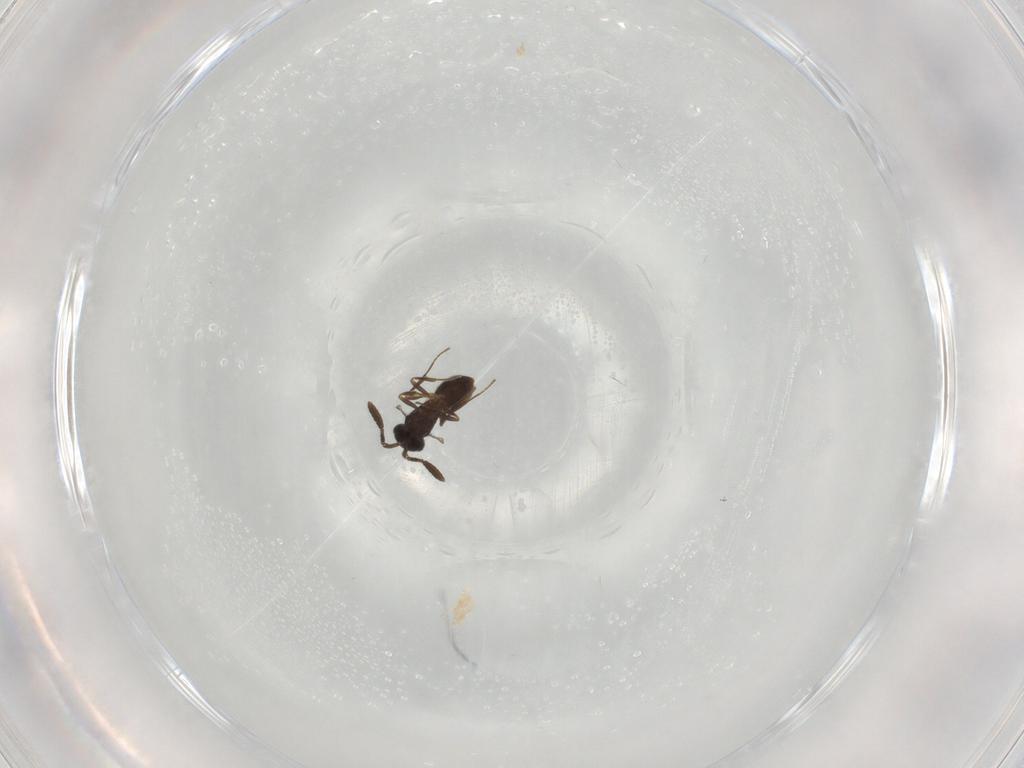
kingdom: Animalia
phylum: Arthropoda
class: Insecta
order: Hymenoptera
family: Scelionidae
